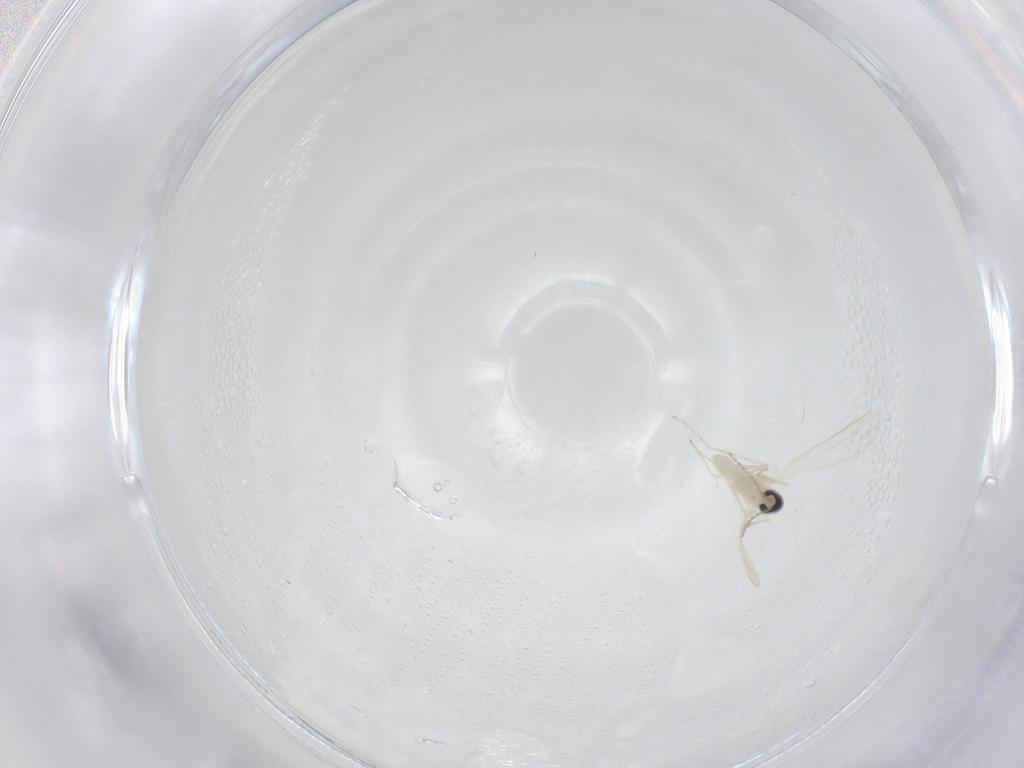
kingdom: Animalia
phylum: Arthropoda
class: Insecta
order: Diptera
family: Cecidomyiidae
